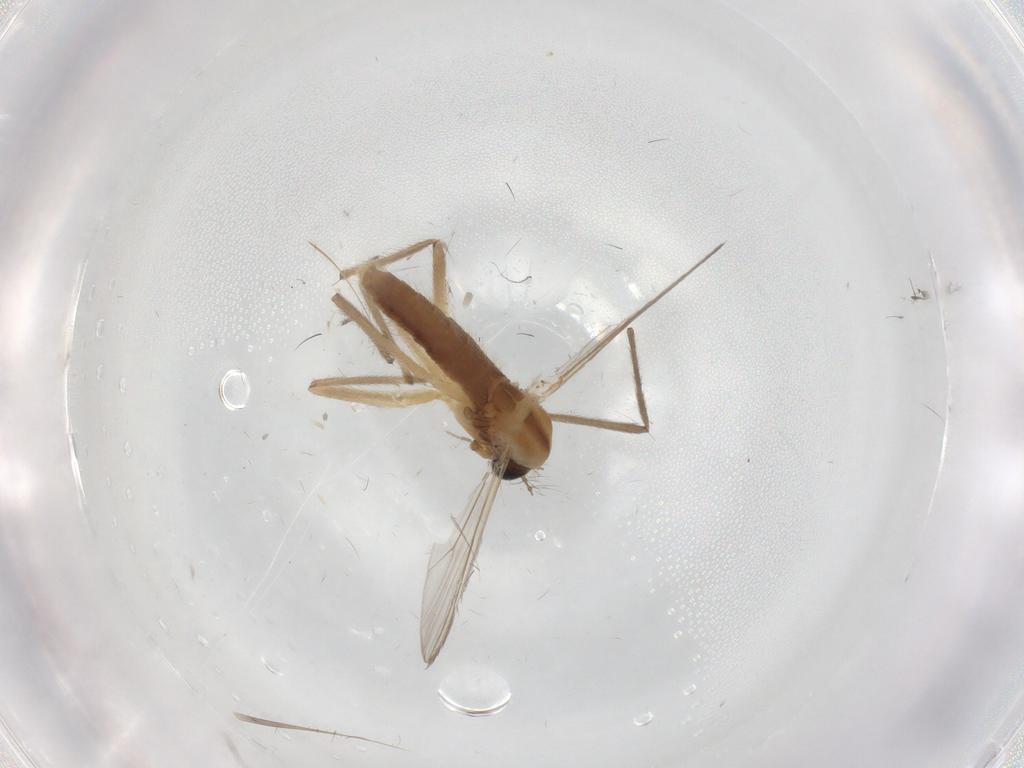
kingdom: Animalia
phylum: Arthropoda
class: Insecta
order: Diptera
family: Chironomidae
